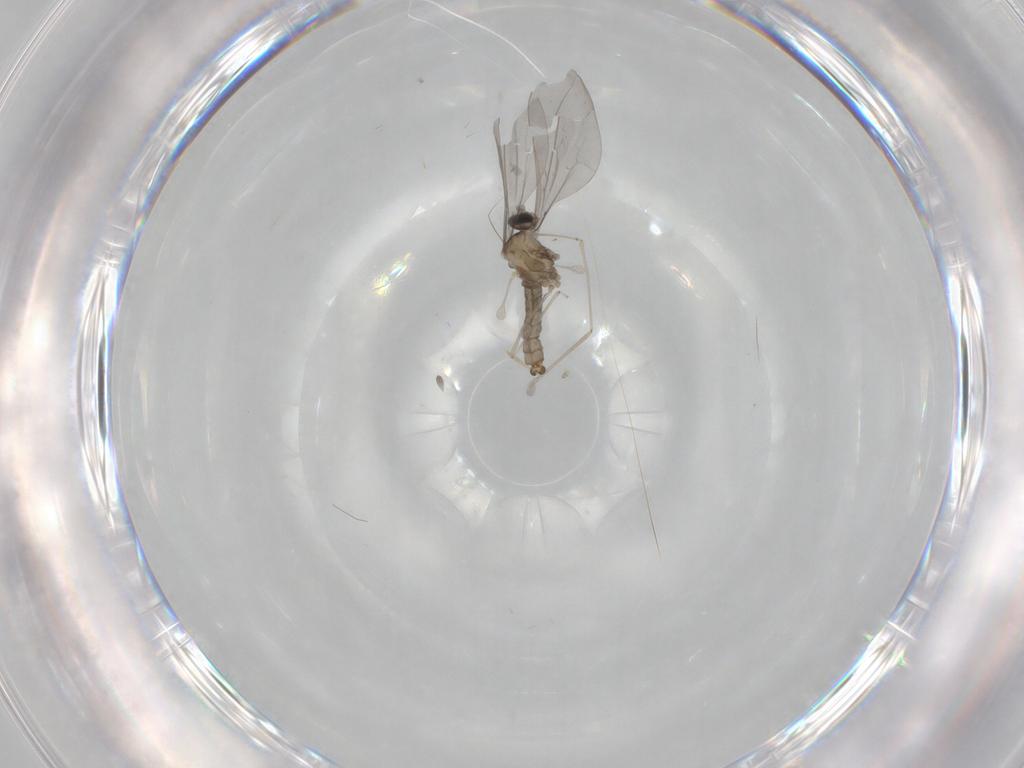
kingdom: Animalia
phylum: Arthropoda
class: Insecta
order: Diptera
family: Cecidomyiidae
